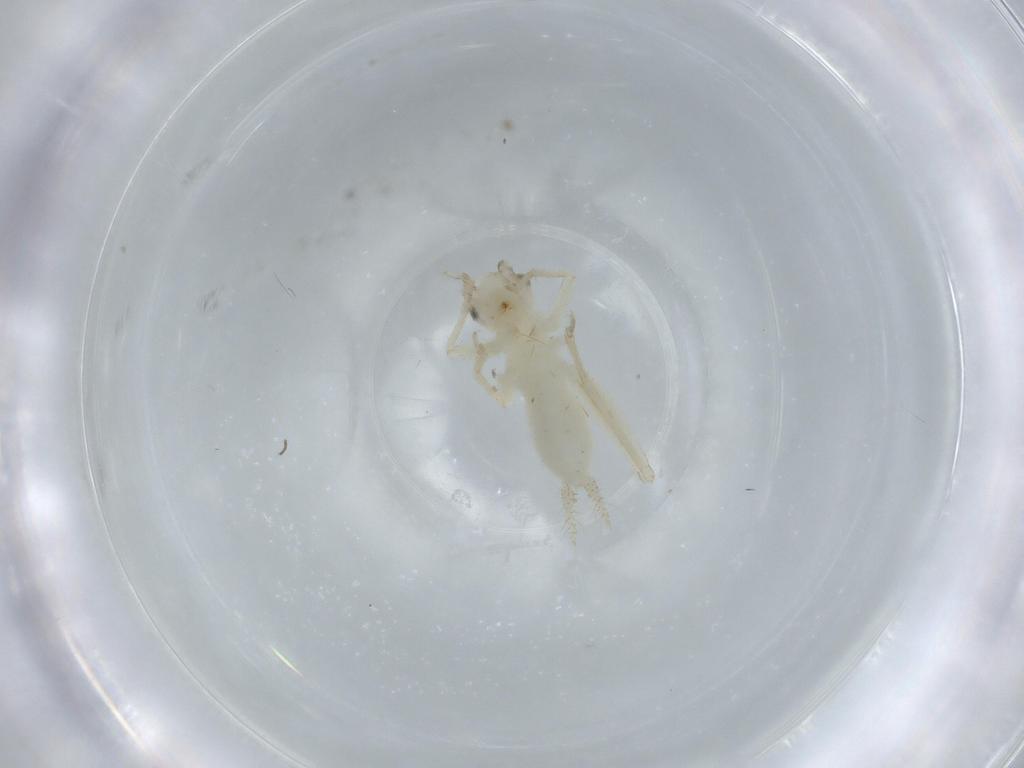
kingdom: Animalia
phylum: Arthropoda
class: Insecta
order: Orthoptera
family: Trigonidiidae
